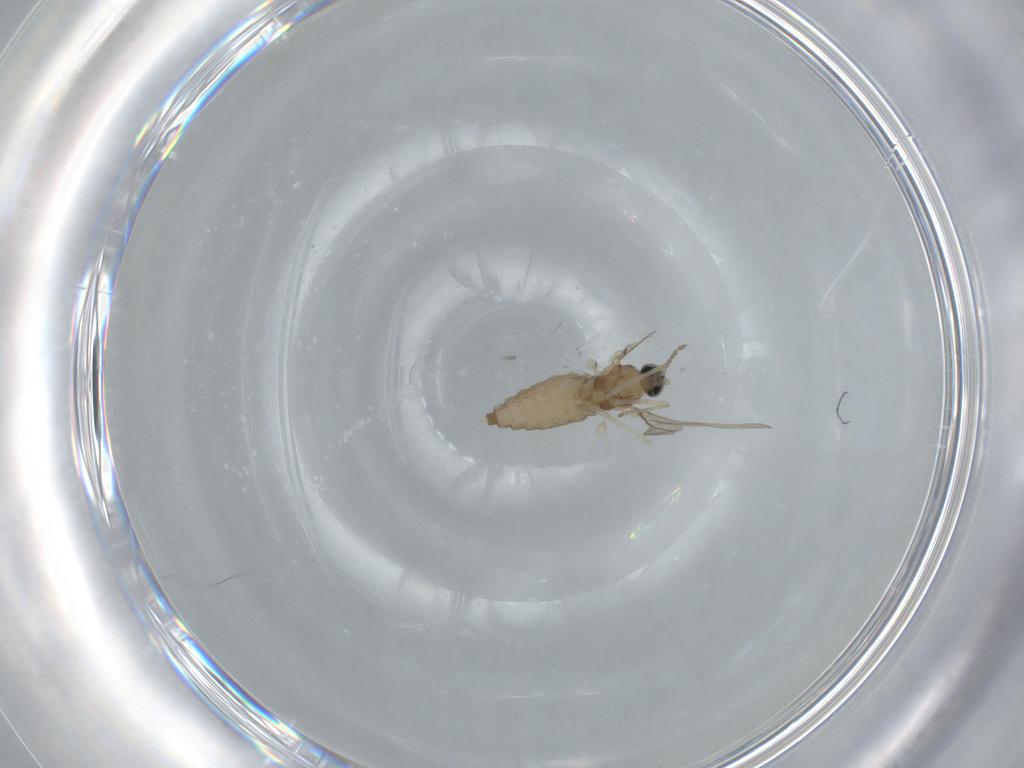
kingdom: Animalia
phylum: Arthropoda
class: Insecta
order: Diptera
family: Cecidomyiidae
